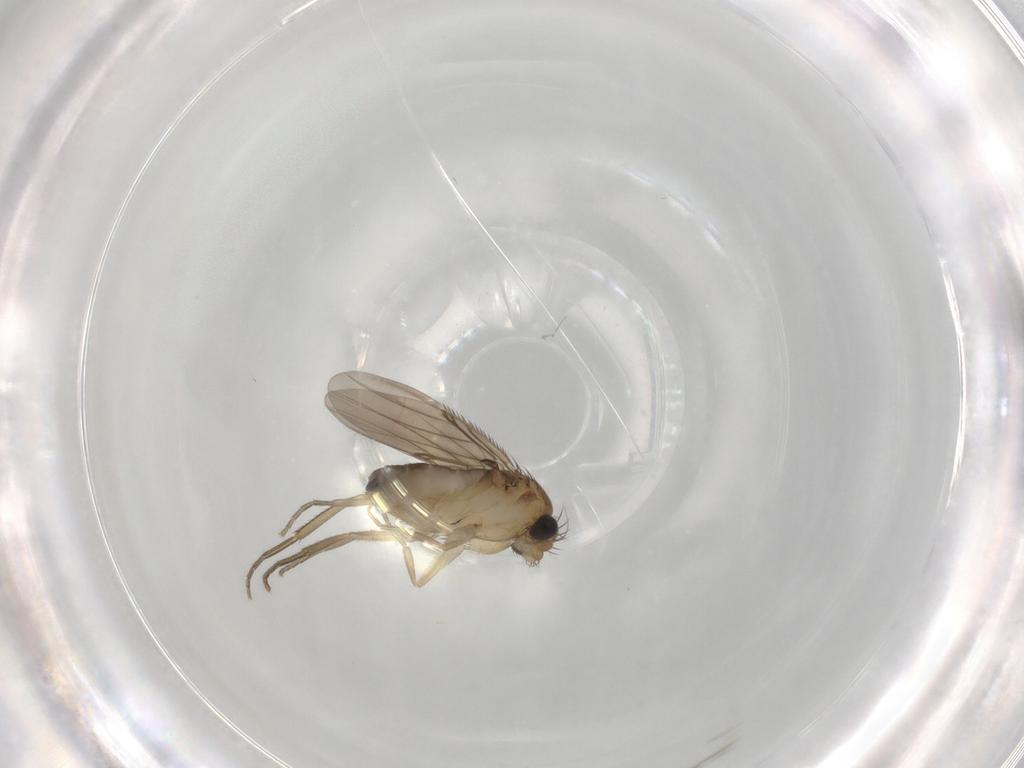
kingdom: Animalia
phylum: Arthropoda
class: Insecta
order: Diptera
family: Phoridae
